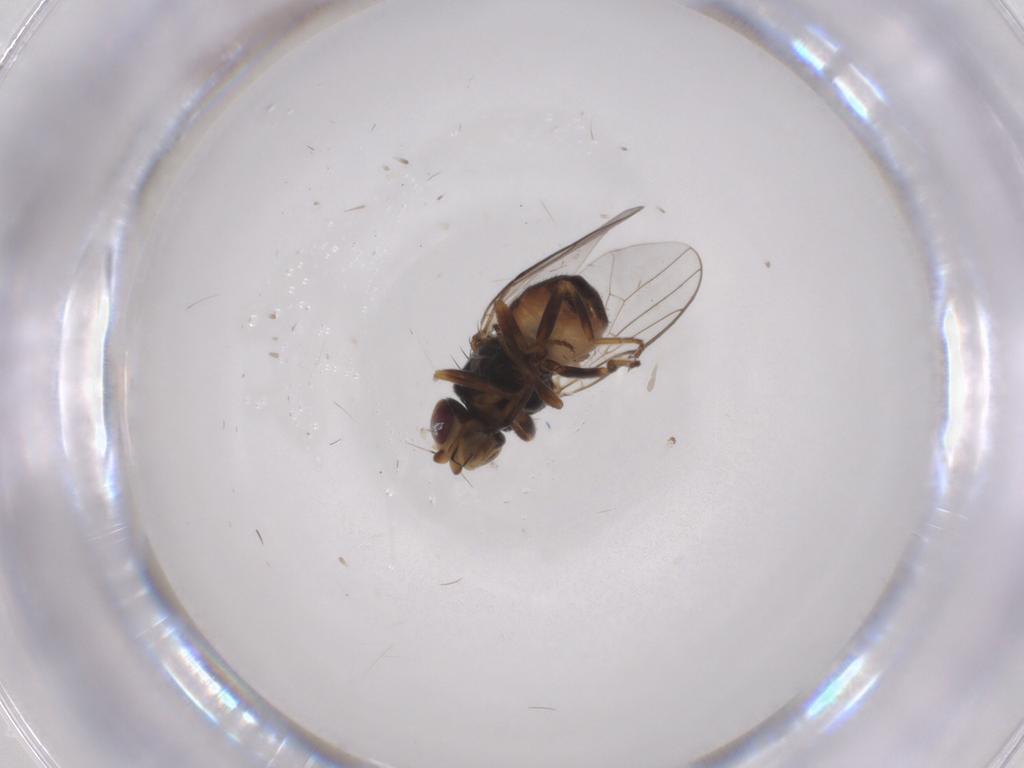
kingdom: Animalia
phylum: Arthropoda
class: Insecta
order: Diptera
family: Chloropidae
